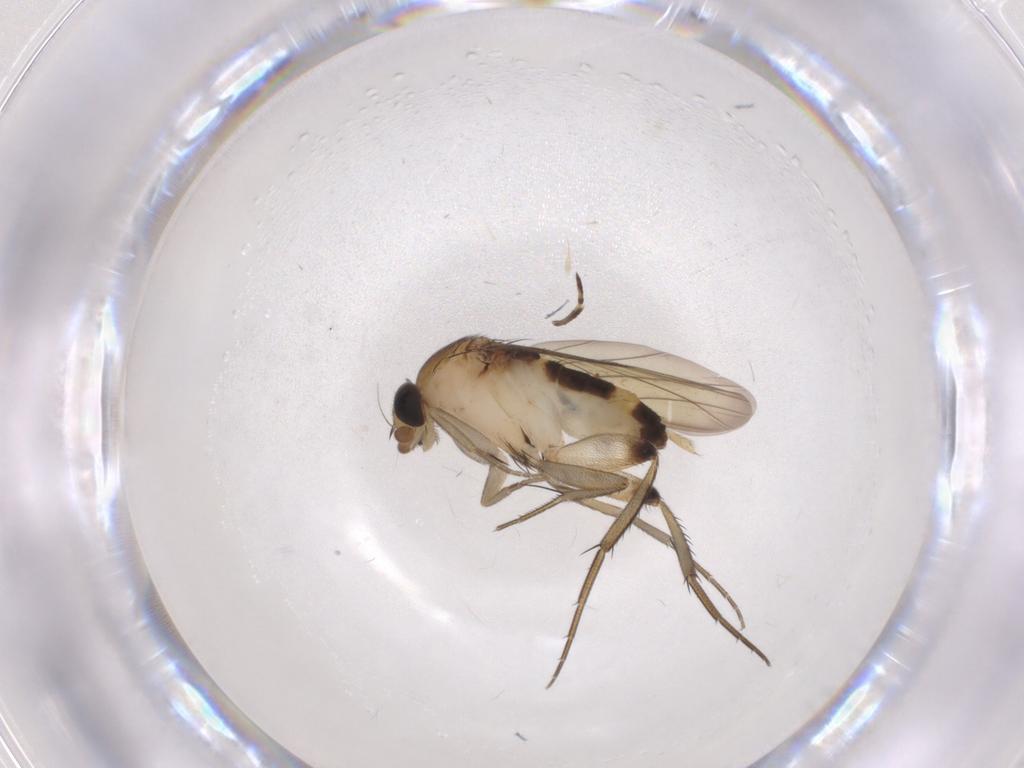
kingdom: Animalia
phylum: Arthropoda
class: Insecta
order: Diptera
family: Phoridae
